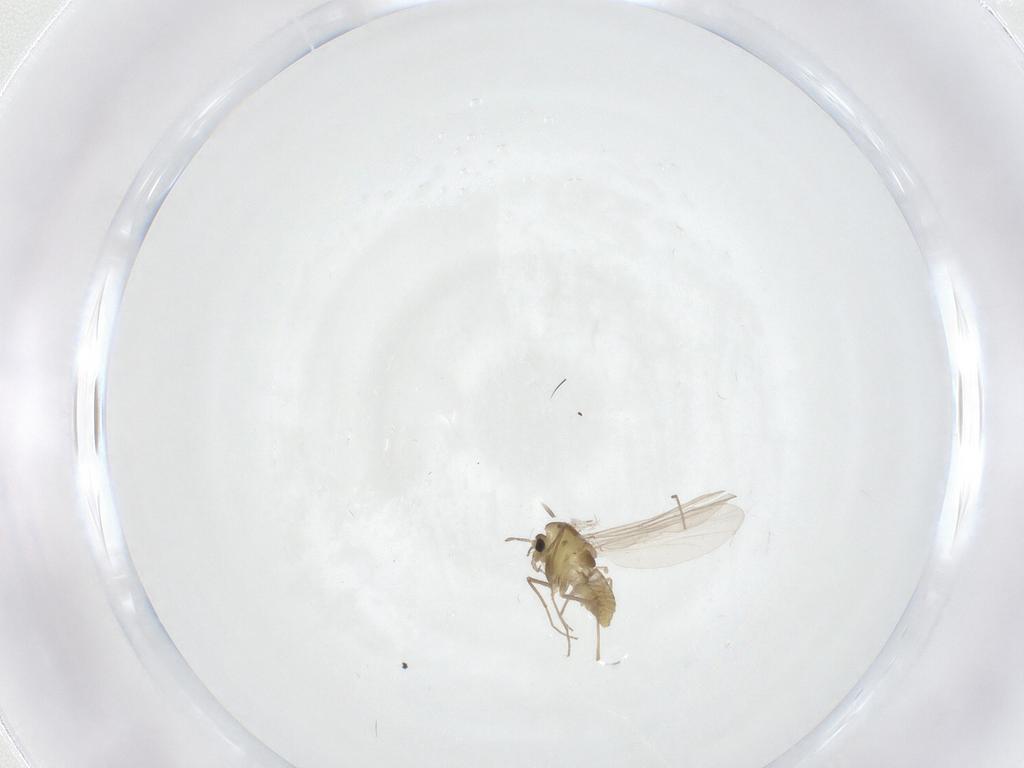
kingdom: Animalia
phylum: Arthropoda
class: Insecta
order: Diptera
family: Chironomidae
